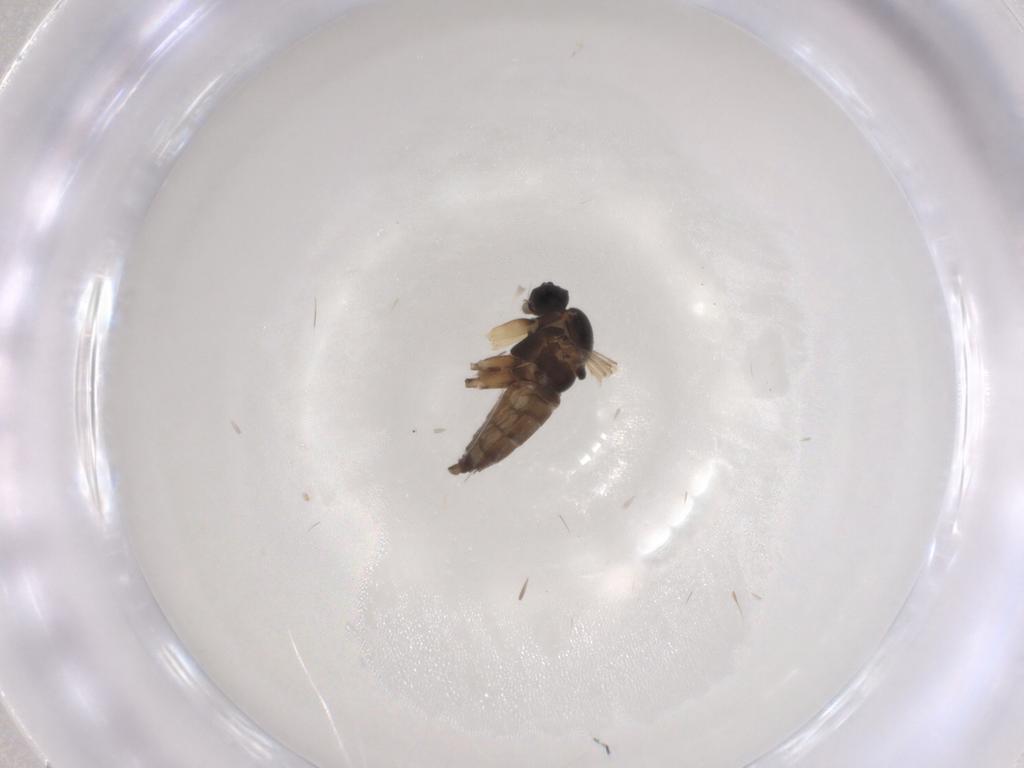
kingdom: Animalia
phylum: Arthropoda
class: Insecta
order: Diptera
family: Sciaridae
